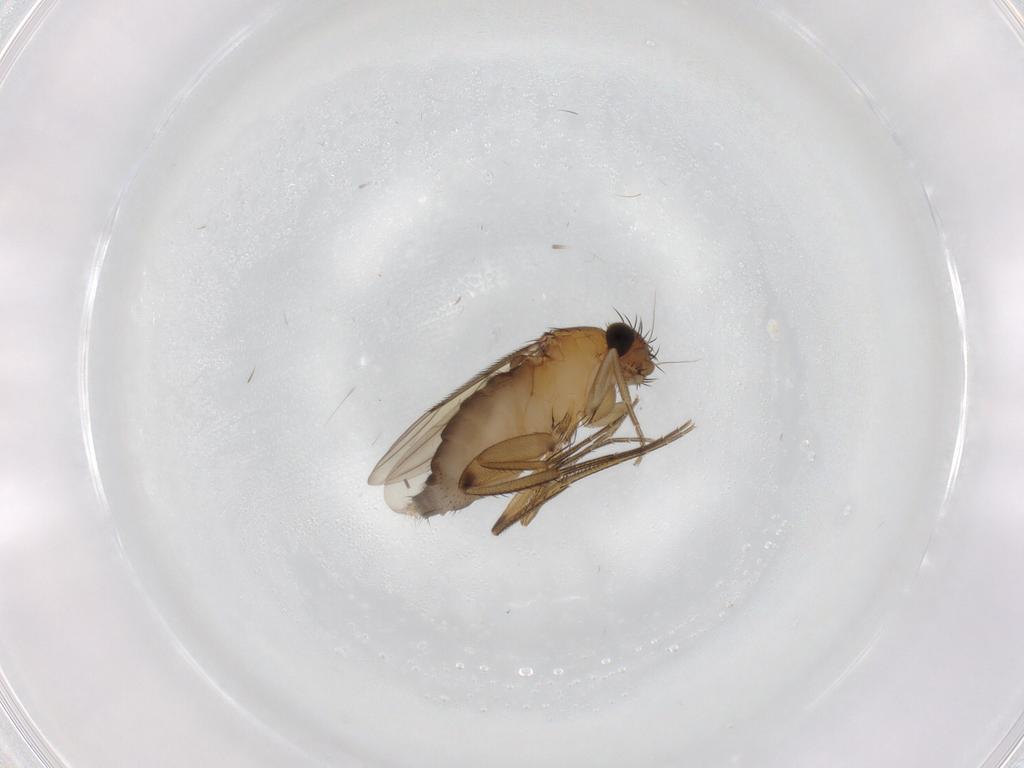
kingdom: Animalia
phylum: Arthropoda
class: Insecta
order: Diptera
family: Phoridae
